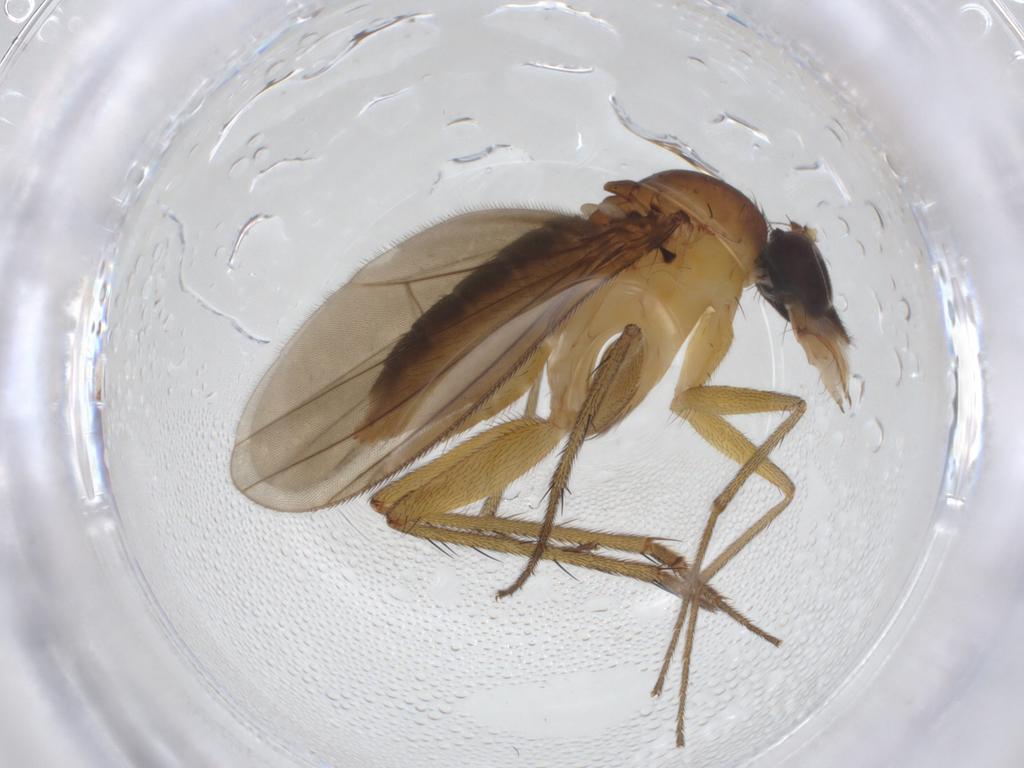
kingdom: Animalia
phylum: Arthropoda
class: Insecta
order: Diptera
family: Dolichopodidae
